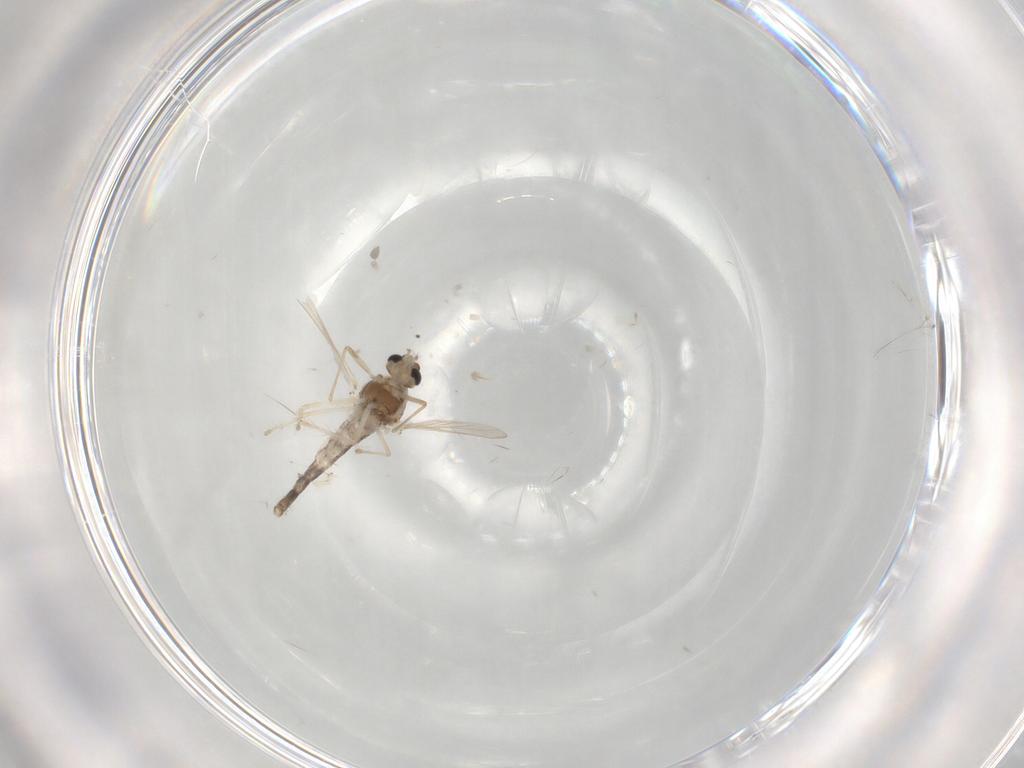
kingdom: Animalia
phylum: Arthropoda
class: Insecta
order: Diptera
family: Chironomidae
